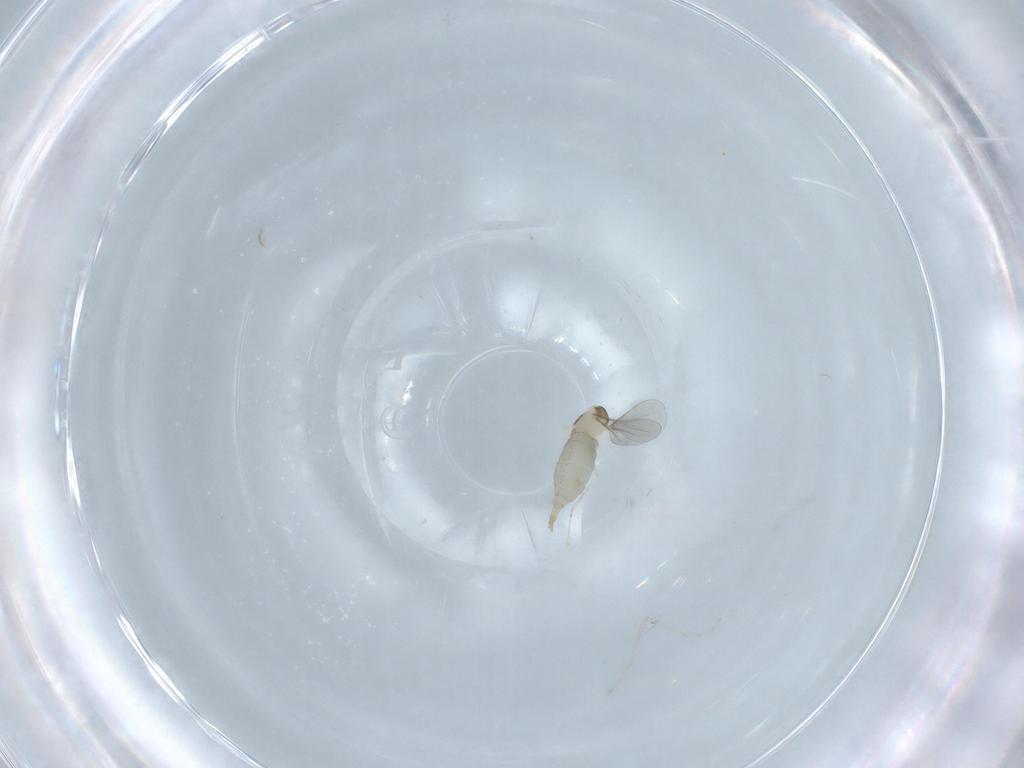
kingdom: Animalia
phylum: Arthropoda
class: Insecta
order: Diptera
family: Cecidomyiidae
